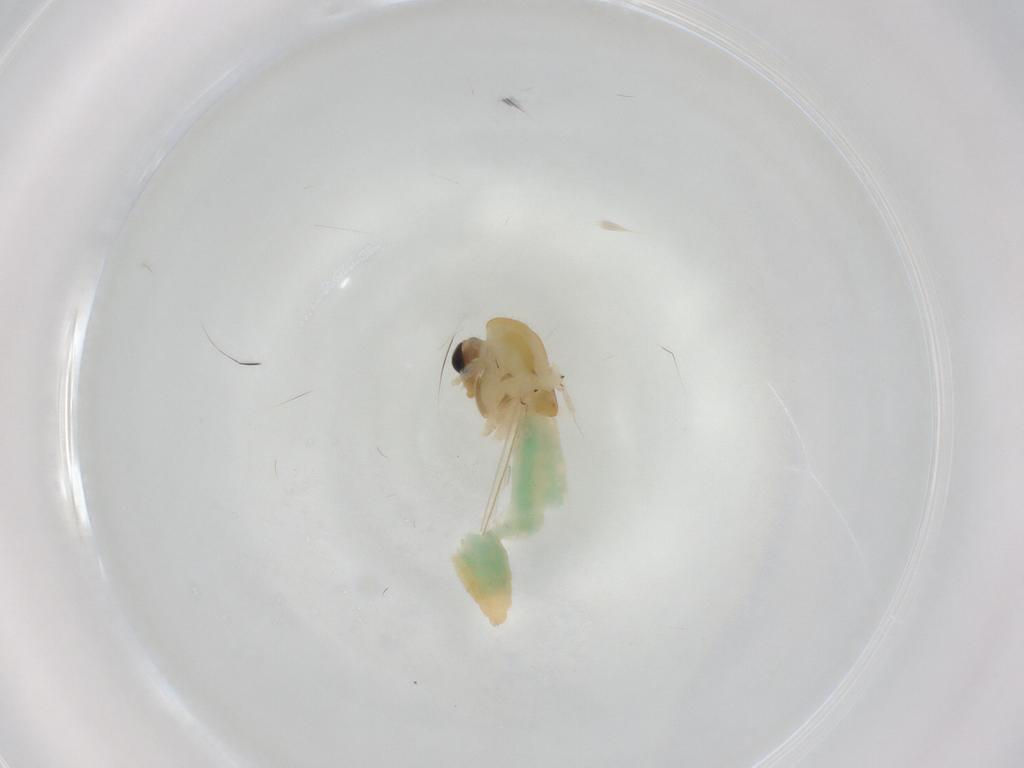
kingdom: Animalia
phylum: Arthropoda
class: Insecta
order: Diptera
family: Chironomidae
